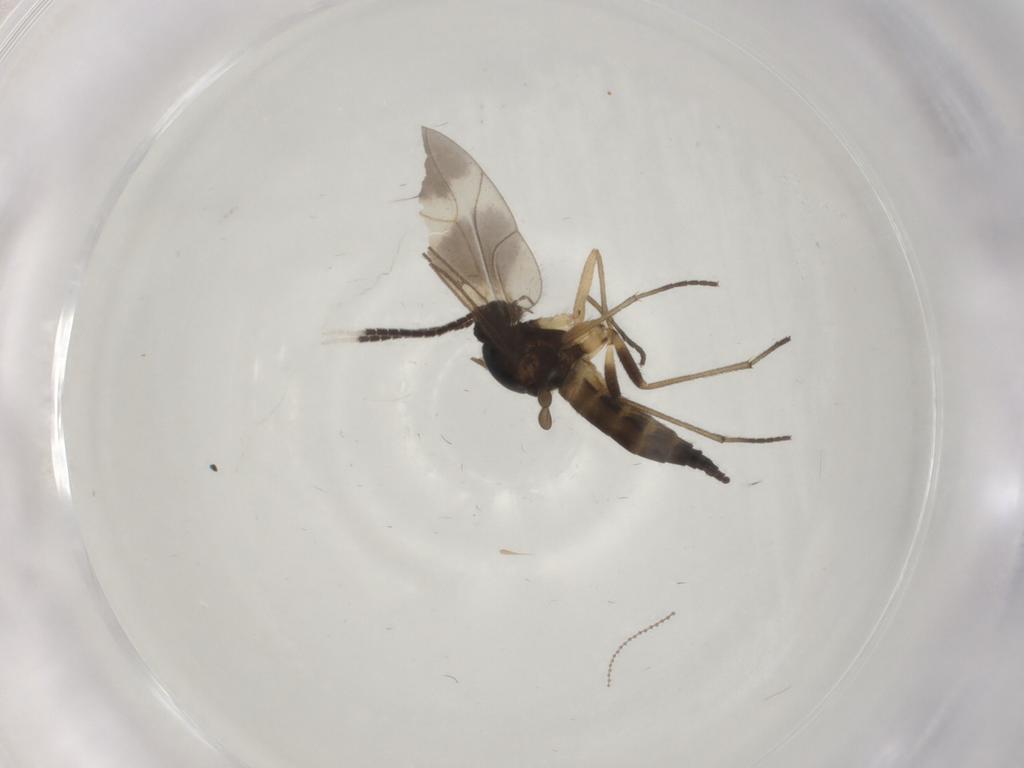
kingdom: Animalia
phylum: Arthropoda
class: Insecta
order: Diptera
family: Sciaridae
